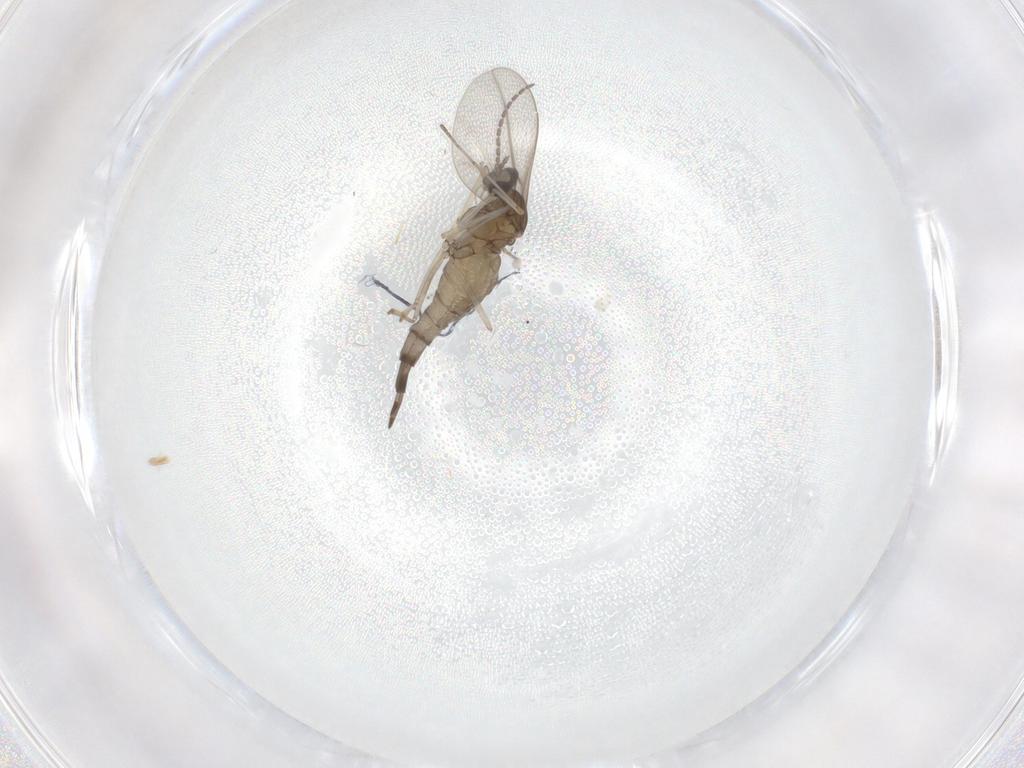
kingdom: Animalia
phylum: Arthropoda
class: Insecta
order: Diptera
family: Cecidomyiidae
